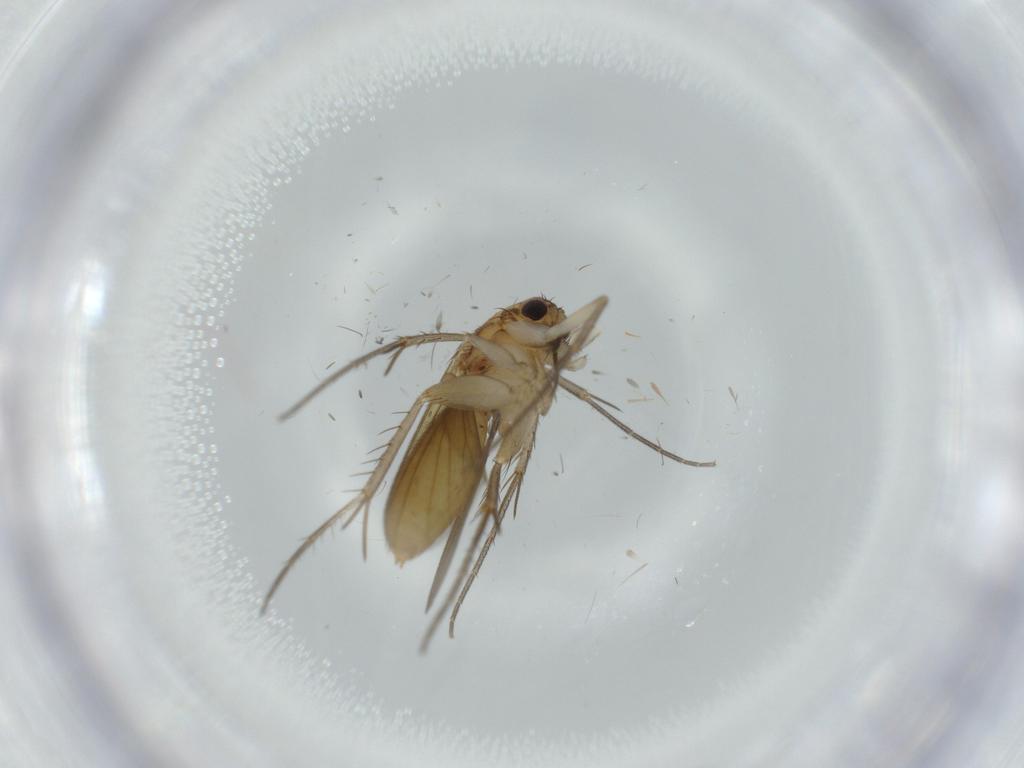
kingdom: Animalia
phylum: Arthropoda
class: Insecta
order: Diptera
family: Mycetophilidae
